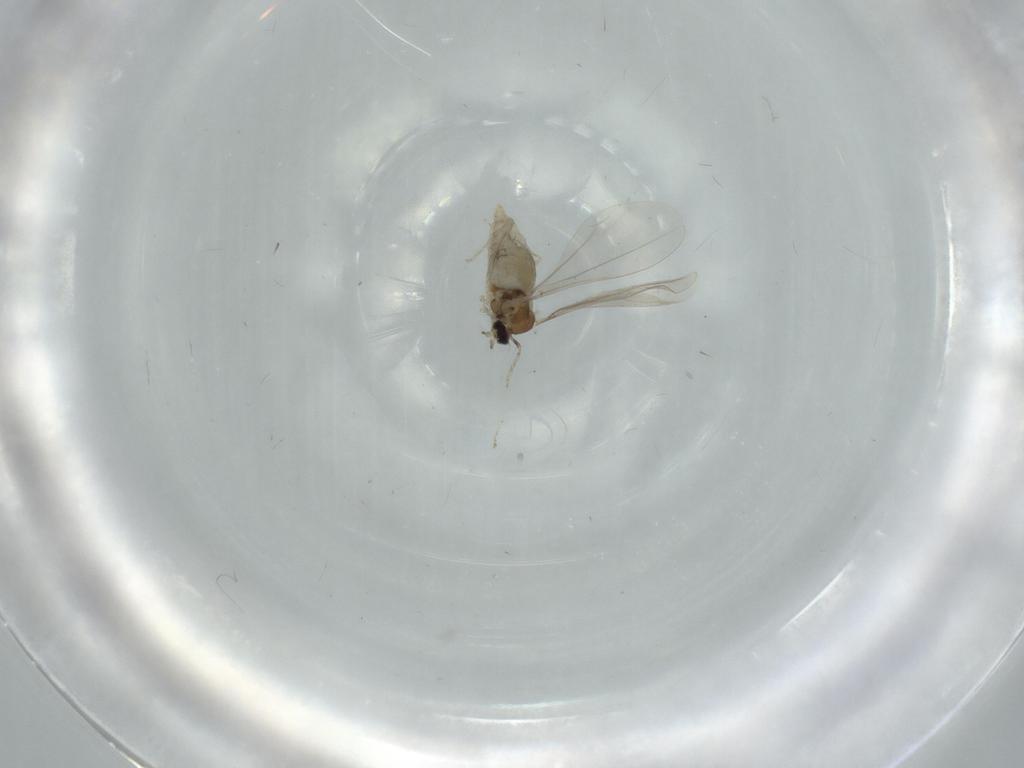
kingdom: Animalia
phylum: Arthropoda
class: Insecta
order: Diptera
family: Cecidomyiidae
